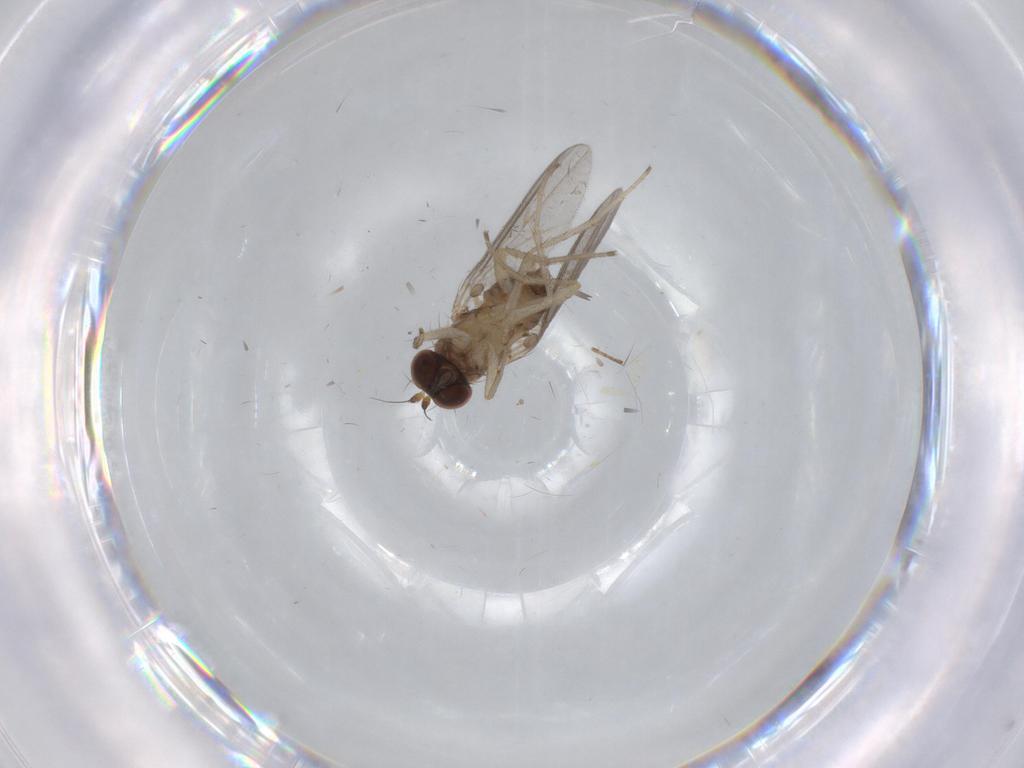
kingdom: Animalia
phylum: Arthropoda
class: Insecta
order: Diptera
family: Dolichopodidae
